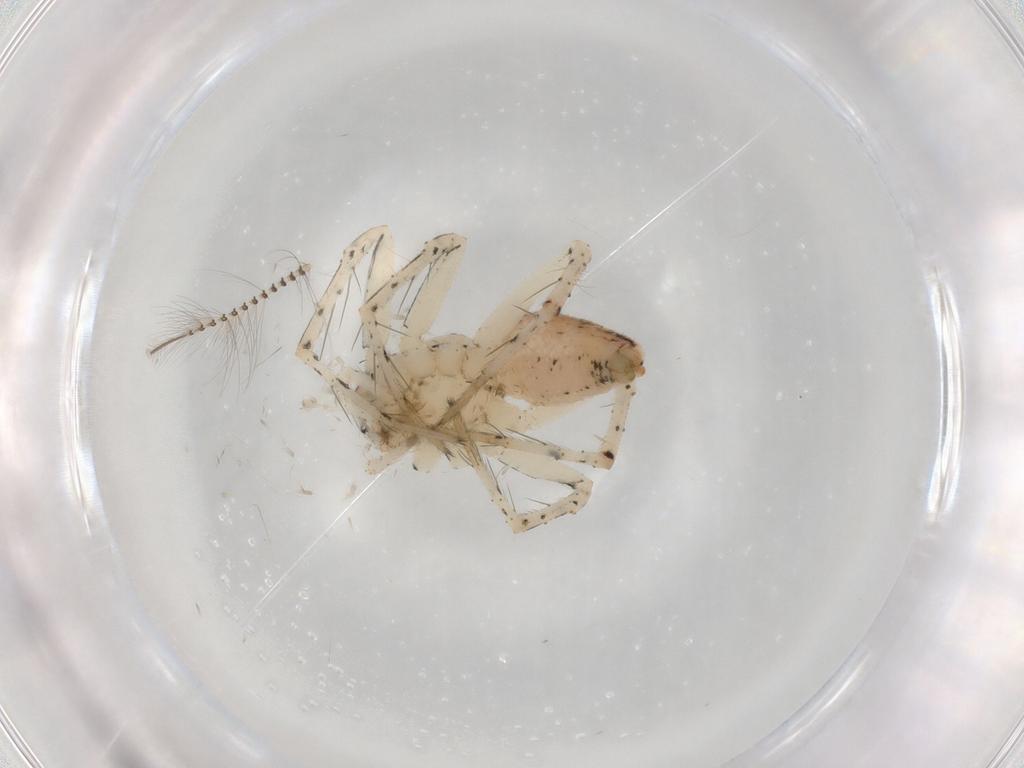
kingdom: Animalia
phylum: Arthropoda
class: Arachnida
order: Araneae
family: Oxyopidae
